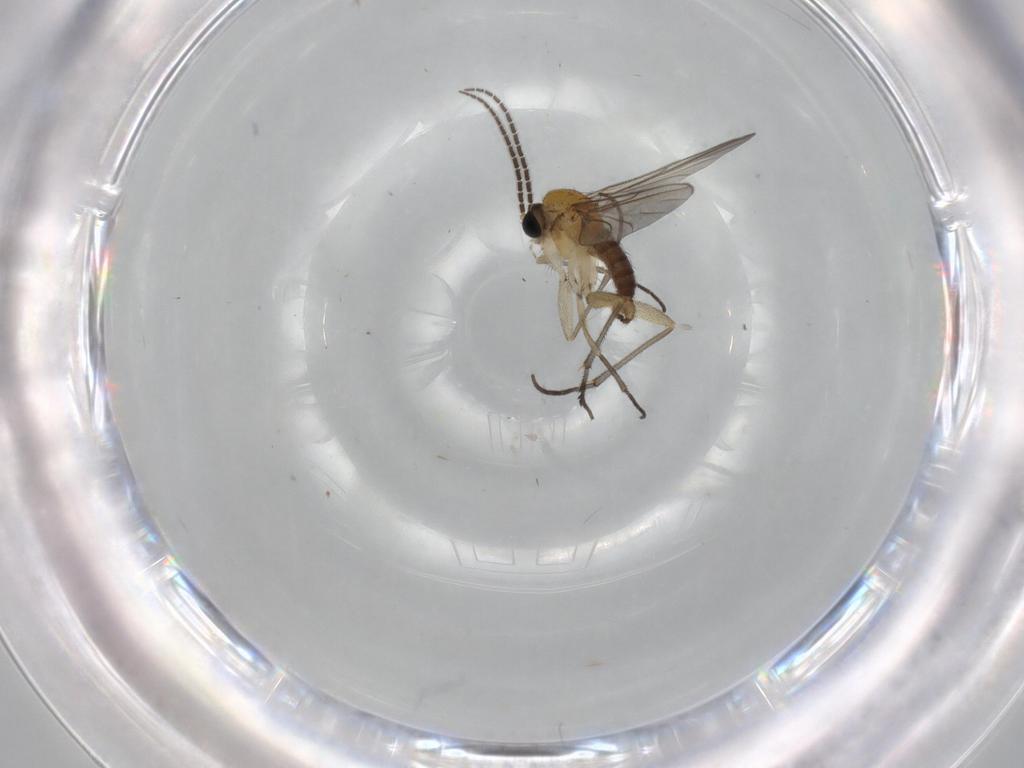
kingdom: Animalia
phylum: Arthropoda
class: Insecta
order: Diptera
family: Sciaridae
